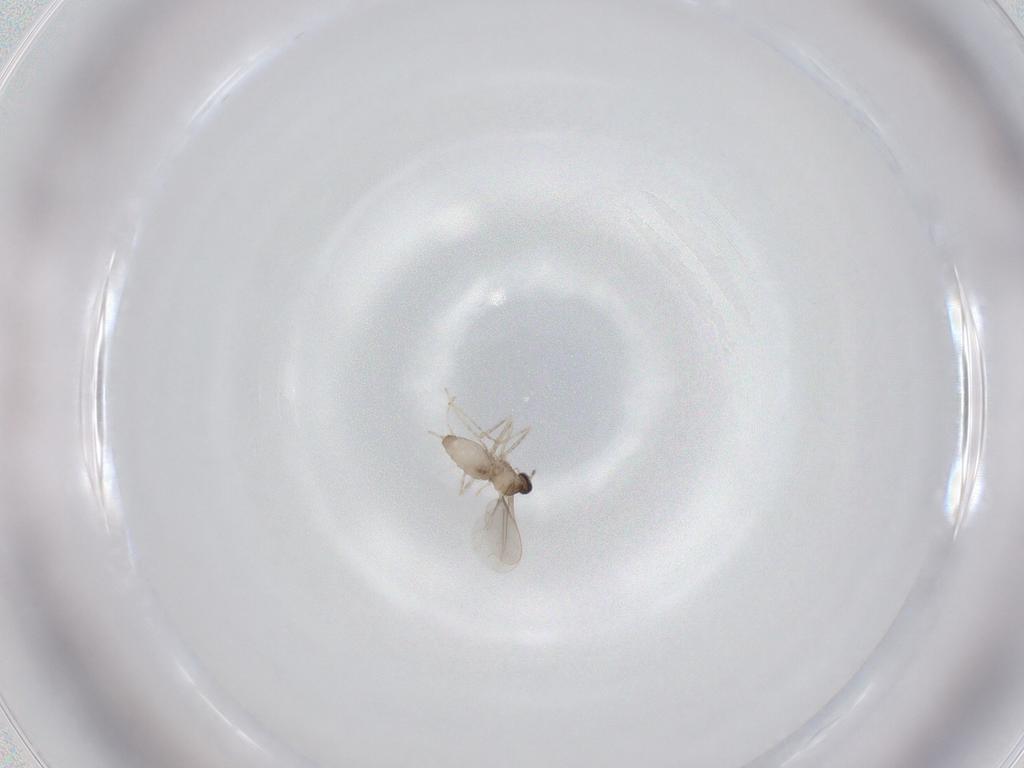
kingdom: Animalia
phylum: Arthropoda
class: Insecta
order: Diptera
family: Cecidomyiidae
